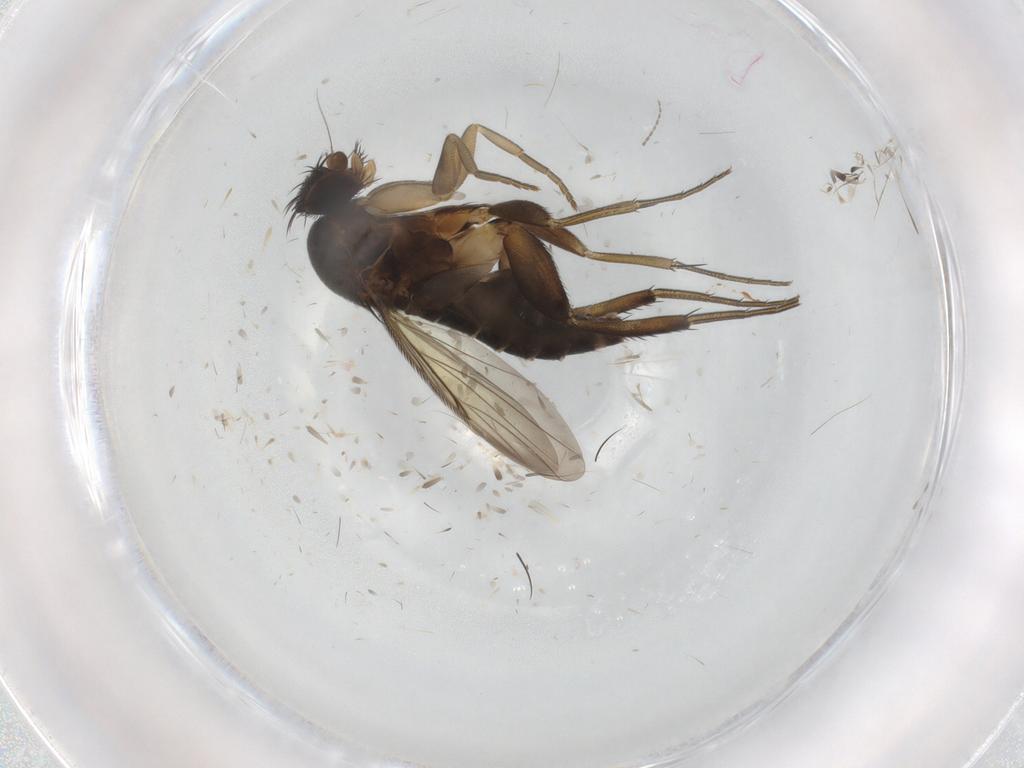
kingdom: Animalia
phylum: Arthropoda
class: Insecta
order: Diptera
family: Phoridae
